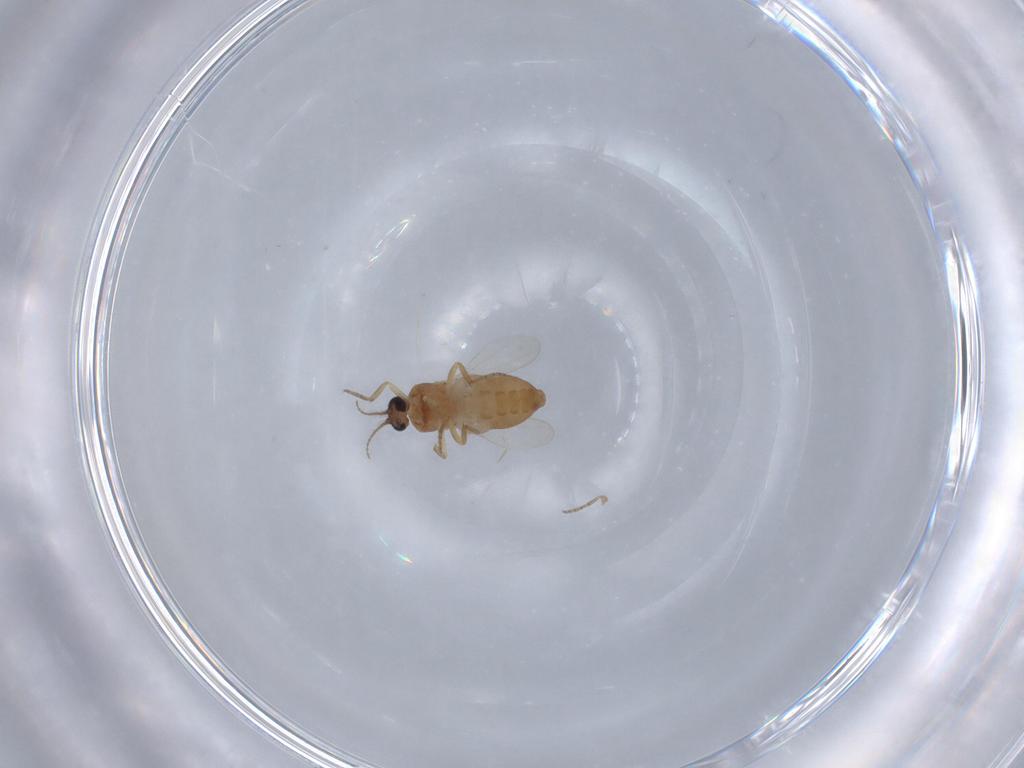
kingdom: Animalia
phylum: Arthropoda
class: Insecta
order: Diptera
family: Ceratopogonidae
